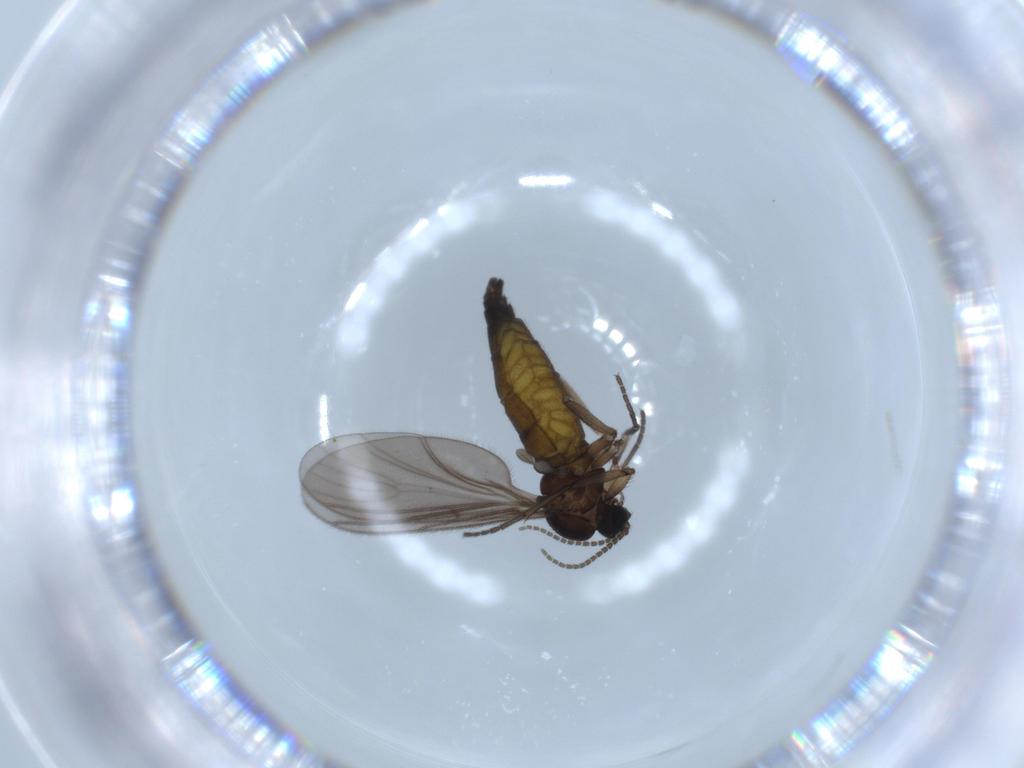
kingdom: Animalia
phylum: Arthropoda
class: Insecta
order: Diptera
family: Sciaridae
